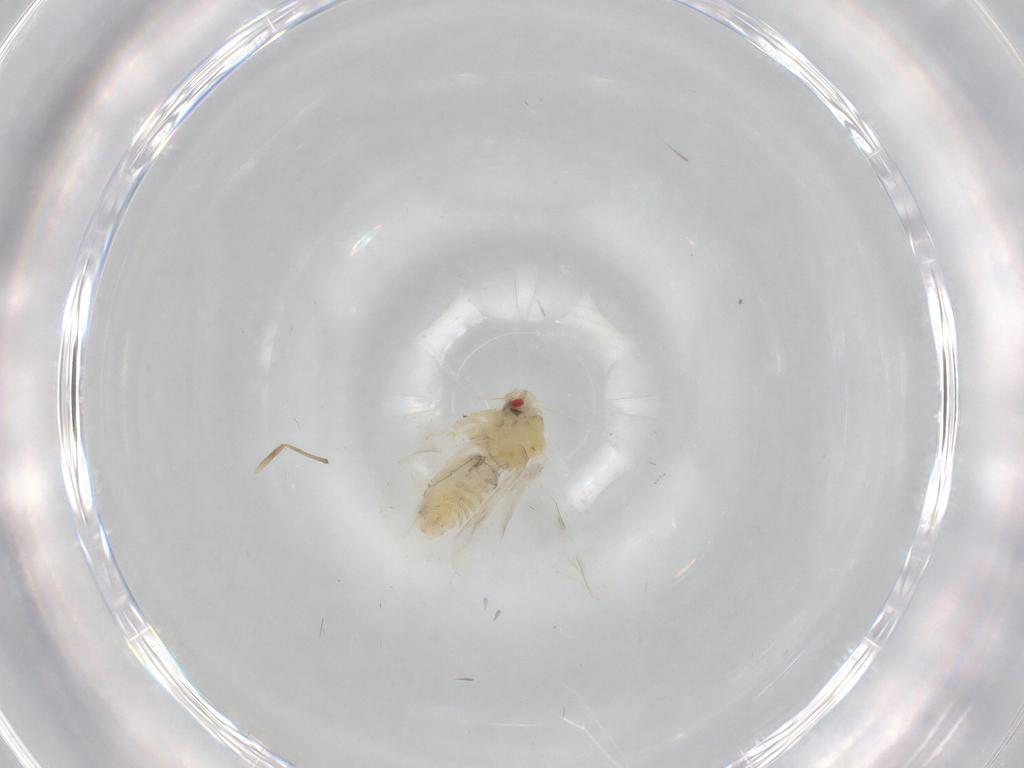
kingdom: Animalia
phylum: Arthropoda
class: Insecta
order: Hemiptera
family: Aleyrodidae
